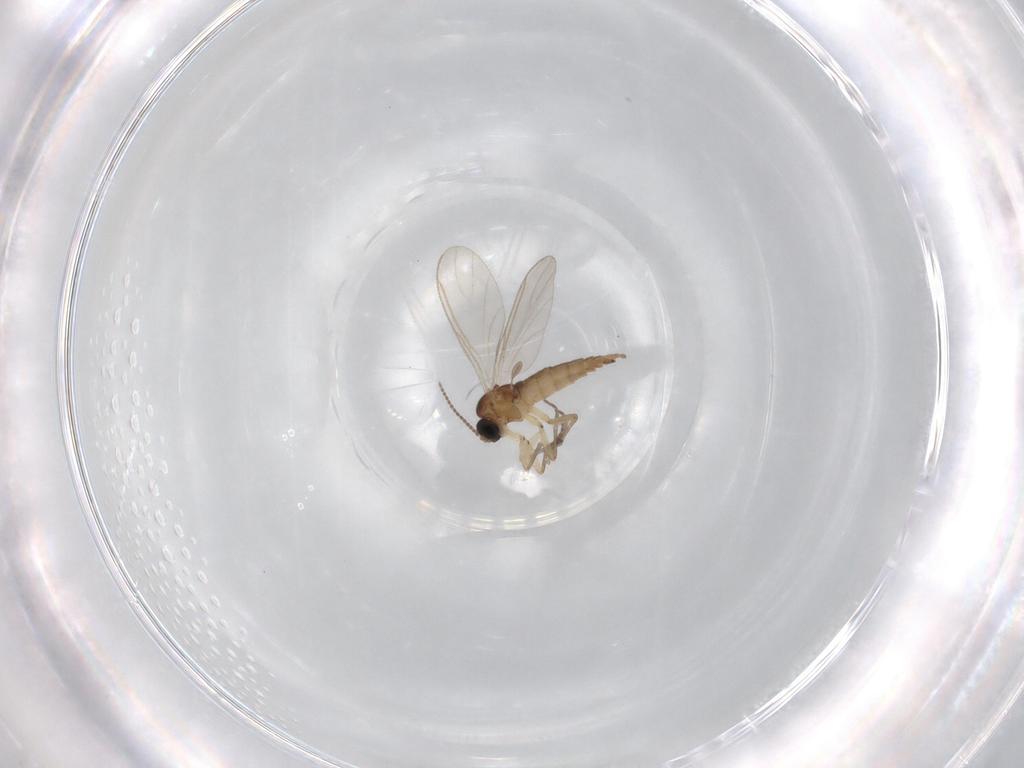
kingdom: Animalia
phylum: Arthropoda
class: Insecta
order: Diptera
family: Sciaridae
